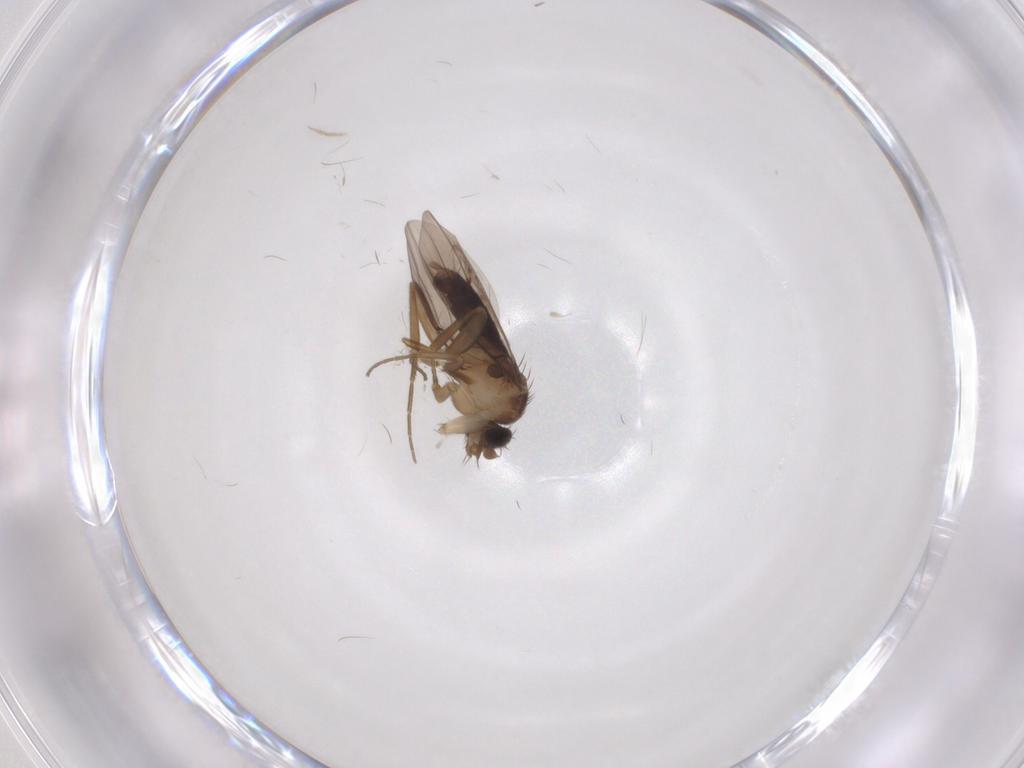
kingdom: Animalia
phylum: Arthropoda
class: Insecta
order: Diptera
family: Phoridae
